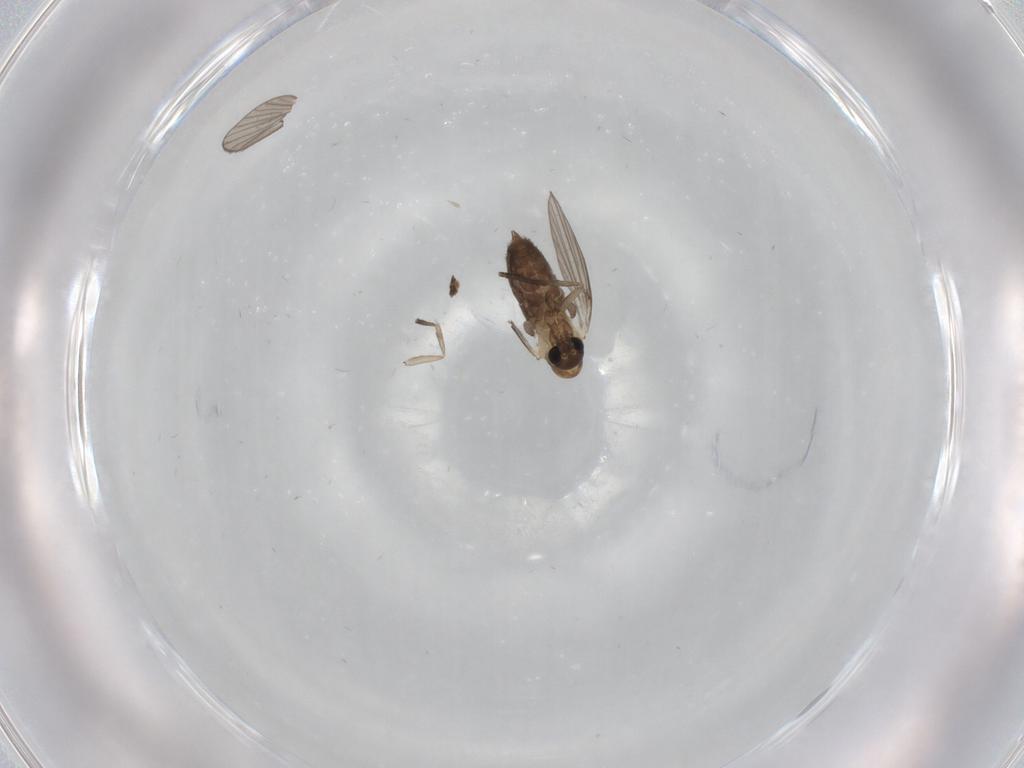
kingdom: Animalia
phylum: Arthropoda
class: Insecta
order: Diptera
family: Psychodidae
